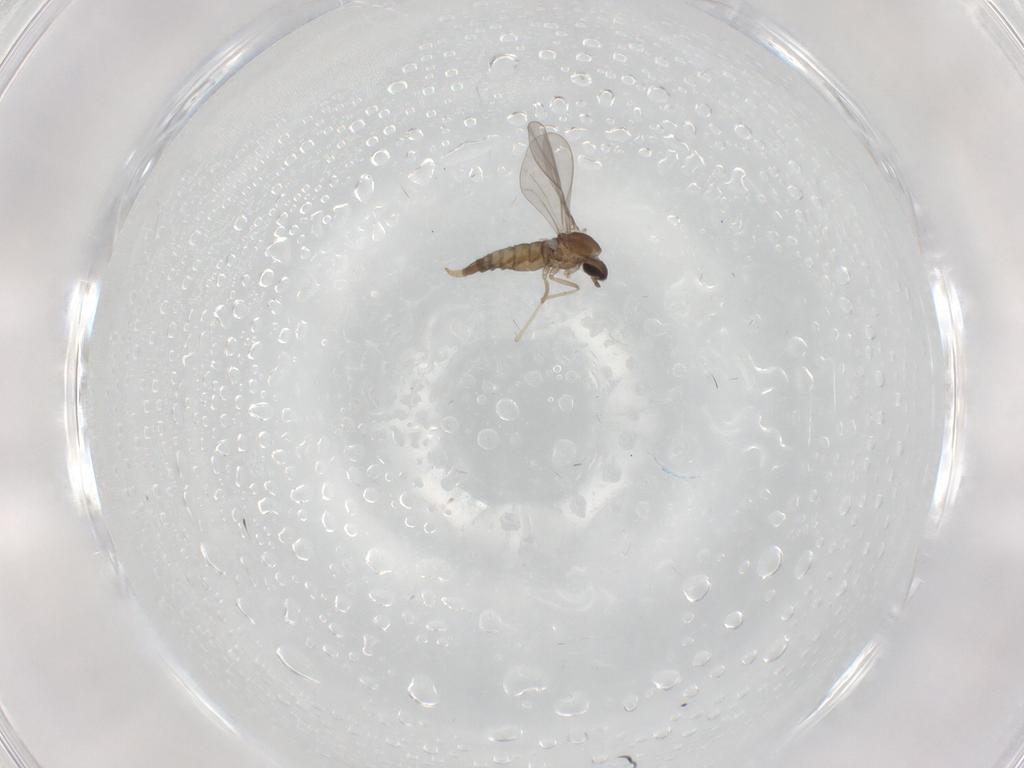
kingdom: Animalia
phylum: Arthropoda
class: Insecta
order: Diptera
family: Cecidomyiidae
